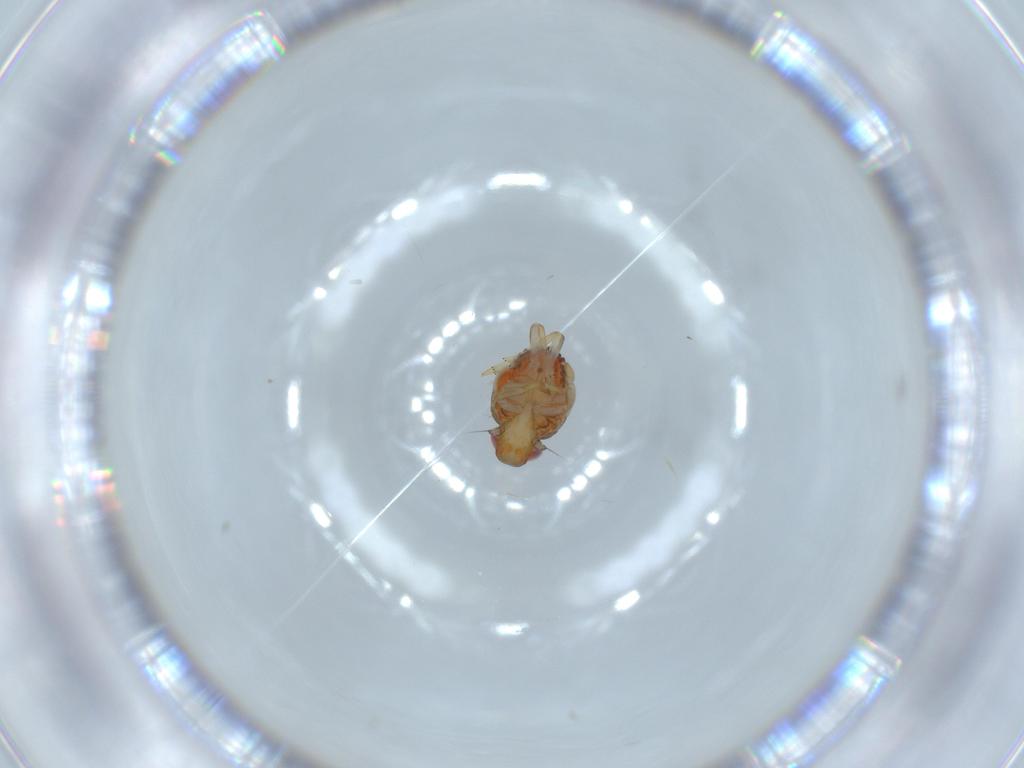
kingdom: Animalia
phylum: Arthropoda
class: Insecta
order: Hemiptera
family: Issidae
